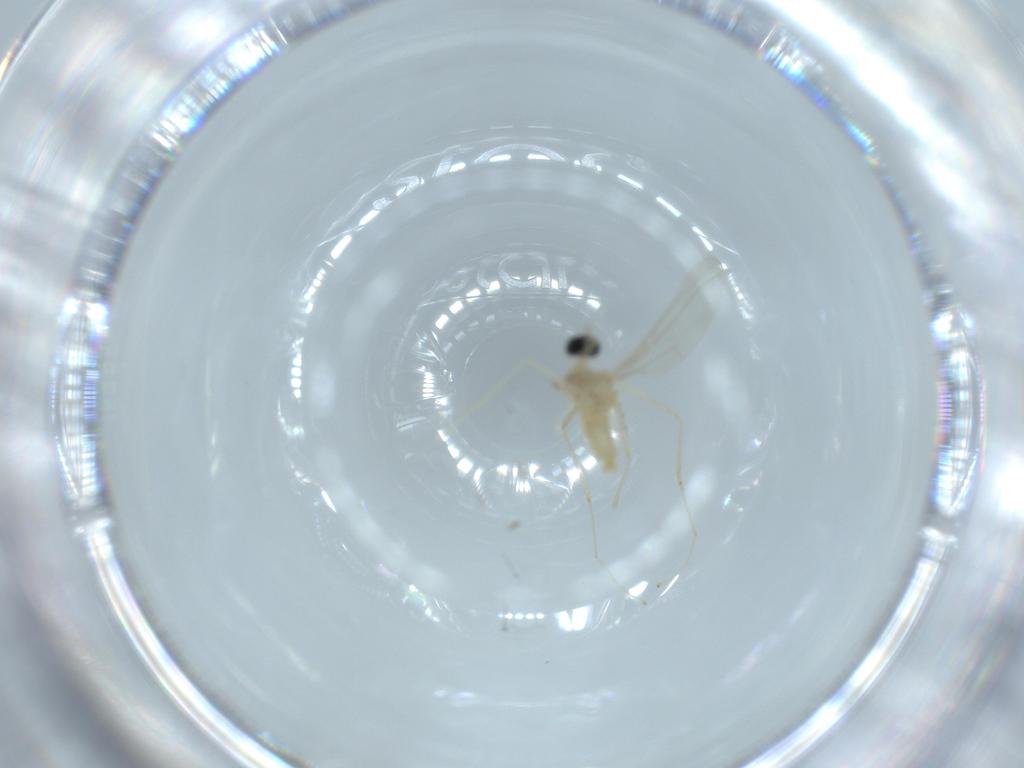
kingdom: Animalia
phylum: Arthropoda
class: Insecta
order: Diptera
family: Cecidomyiidae
